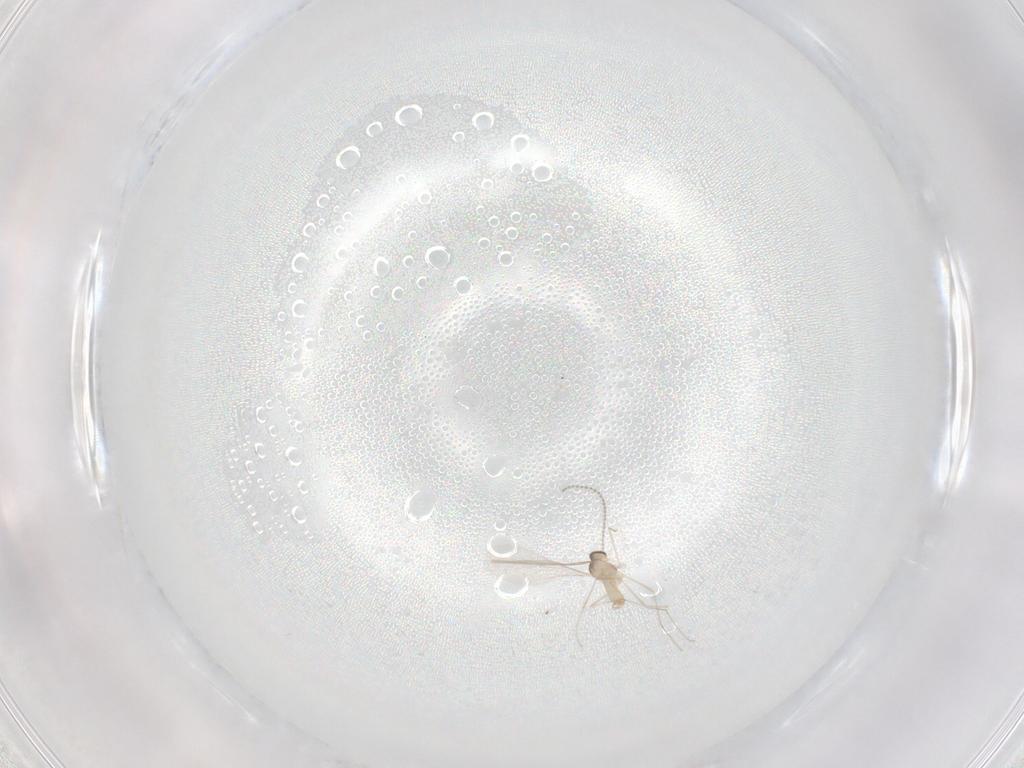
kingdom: Animalia
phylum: Arthropoda
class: Insecta
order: Diptera
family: Cecidomyiidae
